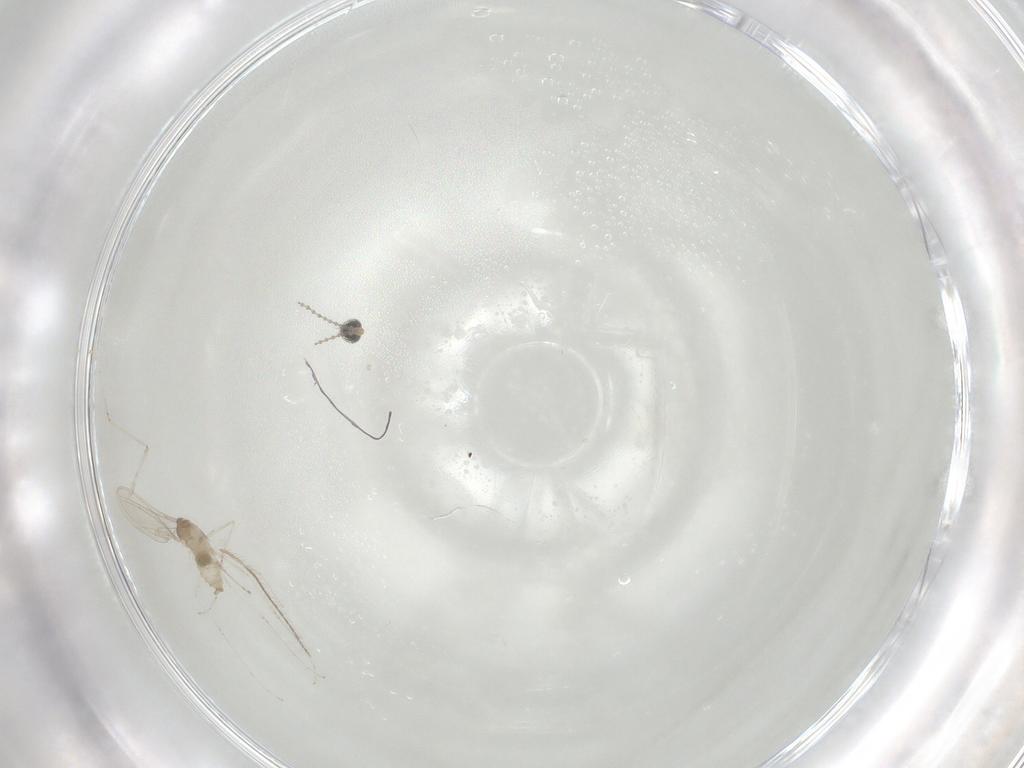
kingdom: Animalia
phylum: Arthropoda
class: Insecta
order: Diptera
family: Cecidomyiidae
